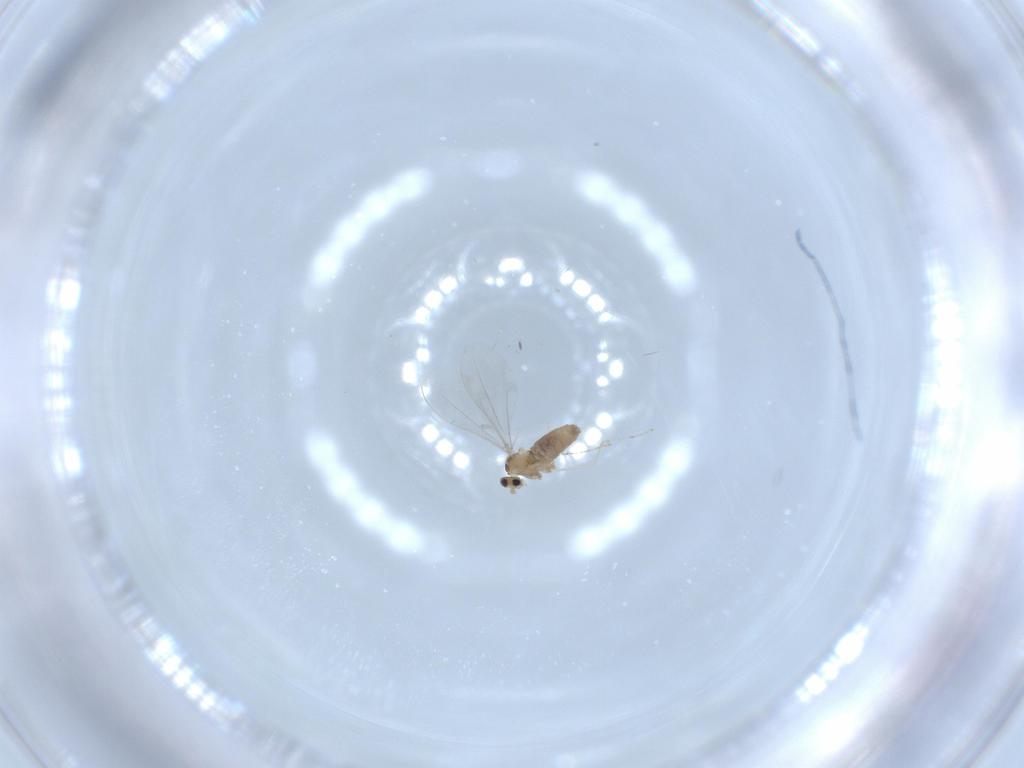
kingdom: Animalia
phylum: Arthropoda
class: Insecta
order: Diptera
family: Cecidomyiidae
